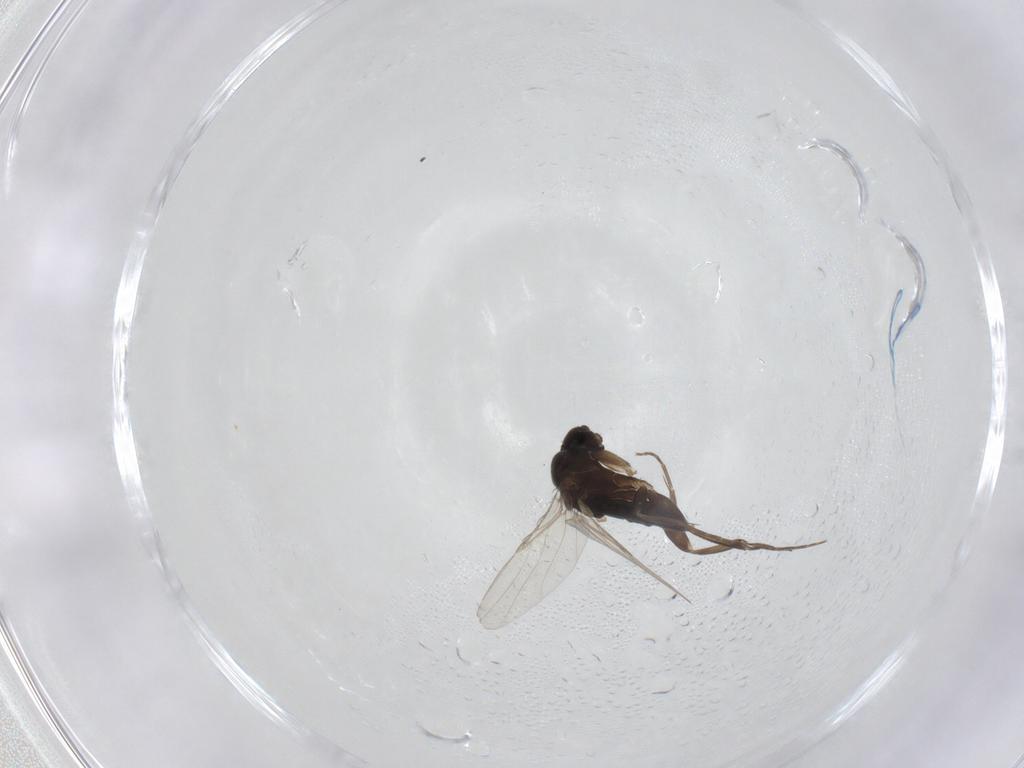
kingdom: Animalia
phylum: Arthropoda
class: Insecta
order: Diptera
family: Phoridae
